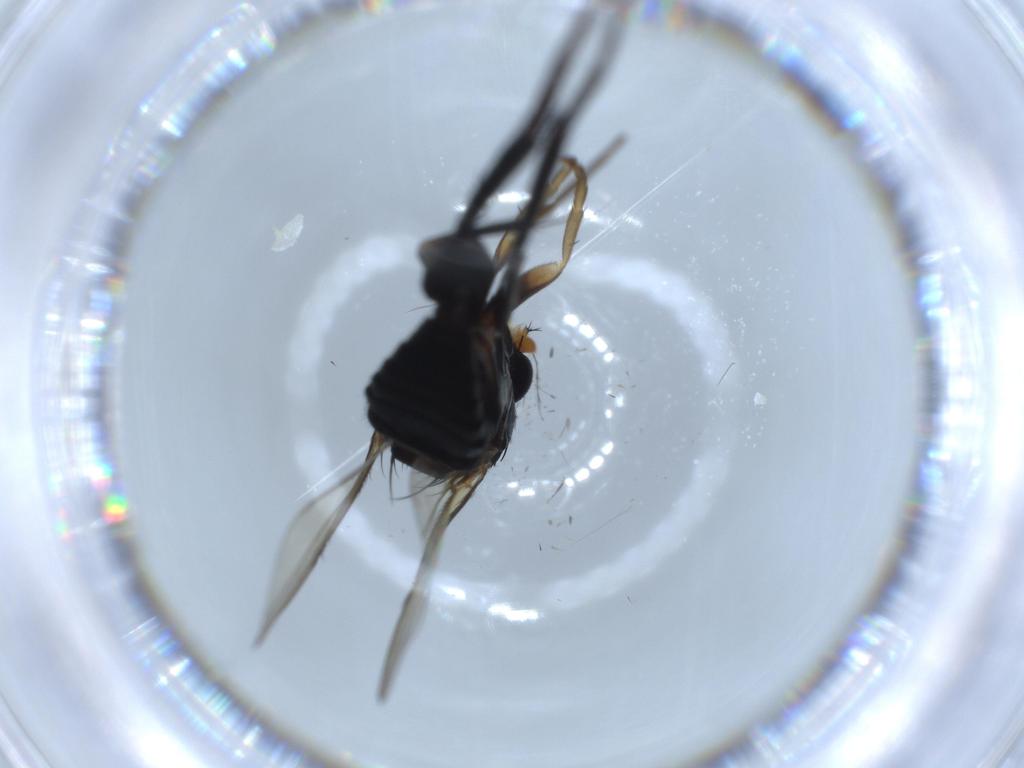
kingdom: Animalia
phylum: Arthropoda
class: Insecta
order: Diptera
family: Phoridae
